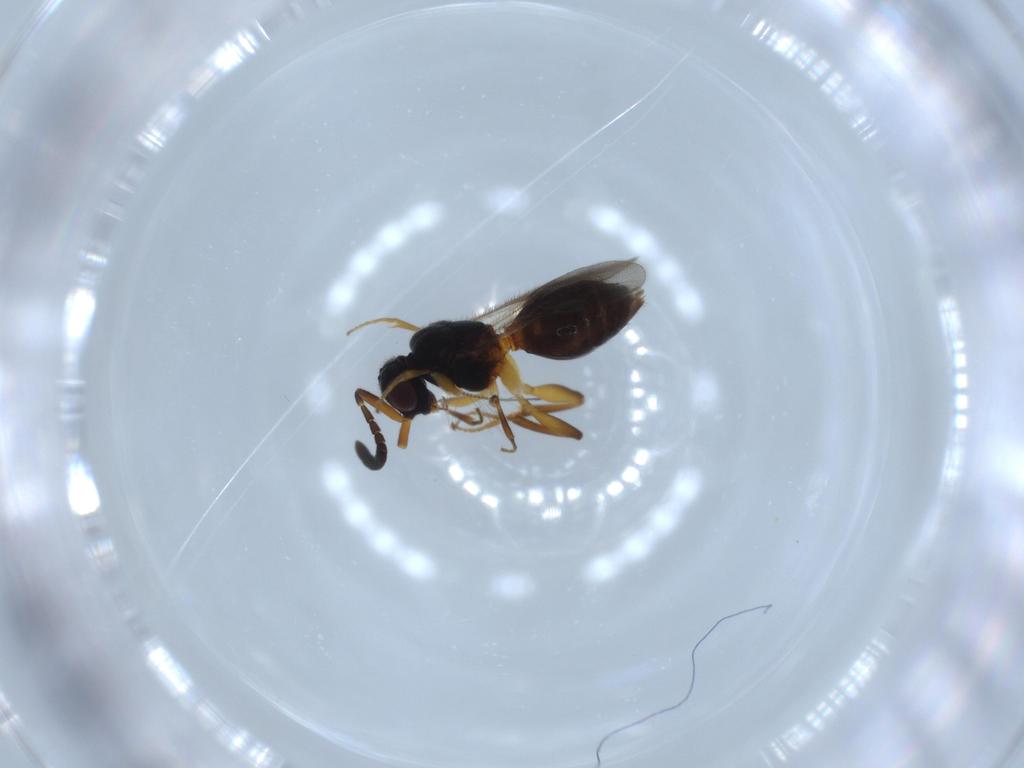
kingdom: Animalia
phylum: Arthropoda
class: Insecta
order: Hymenoptera
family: Megaspilidae
